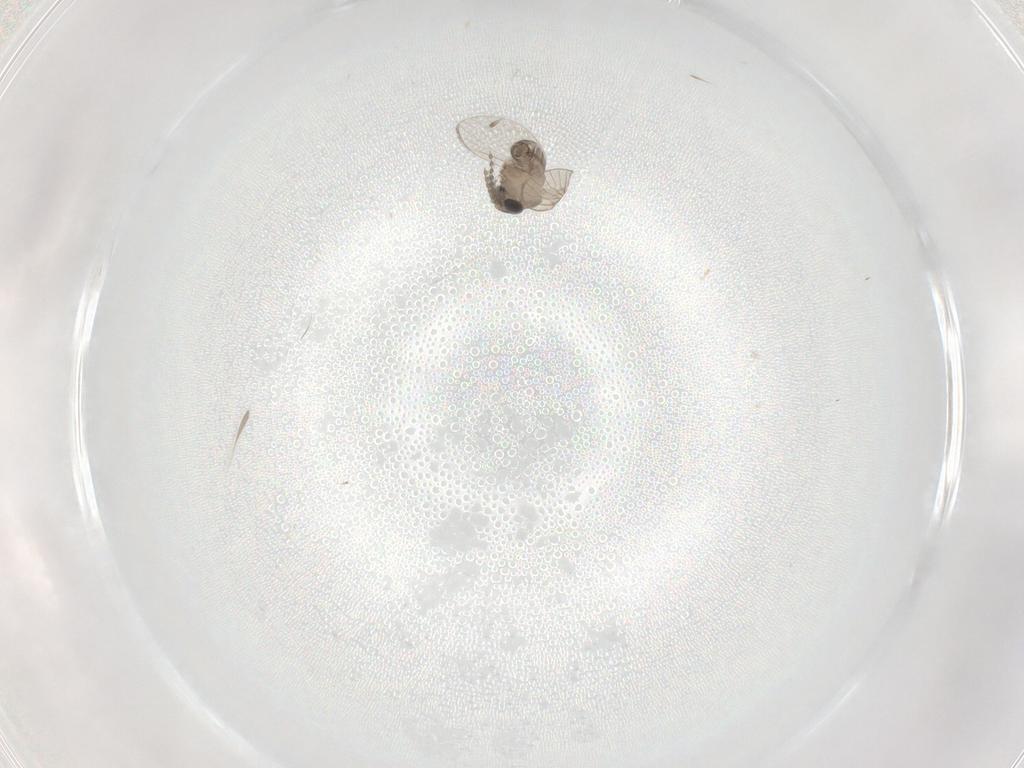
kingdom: Animalia
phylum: Arthropoda
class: Insecta
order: Diptera
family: Psychodidae
